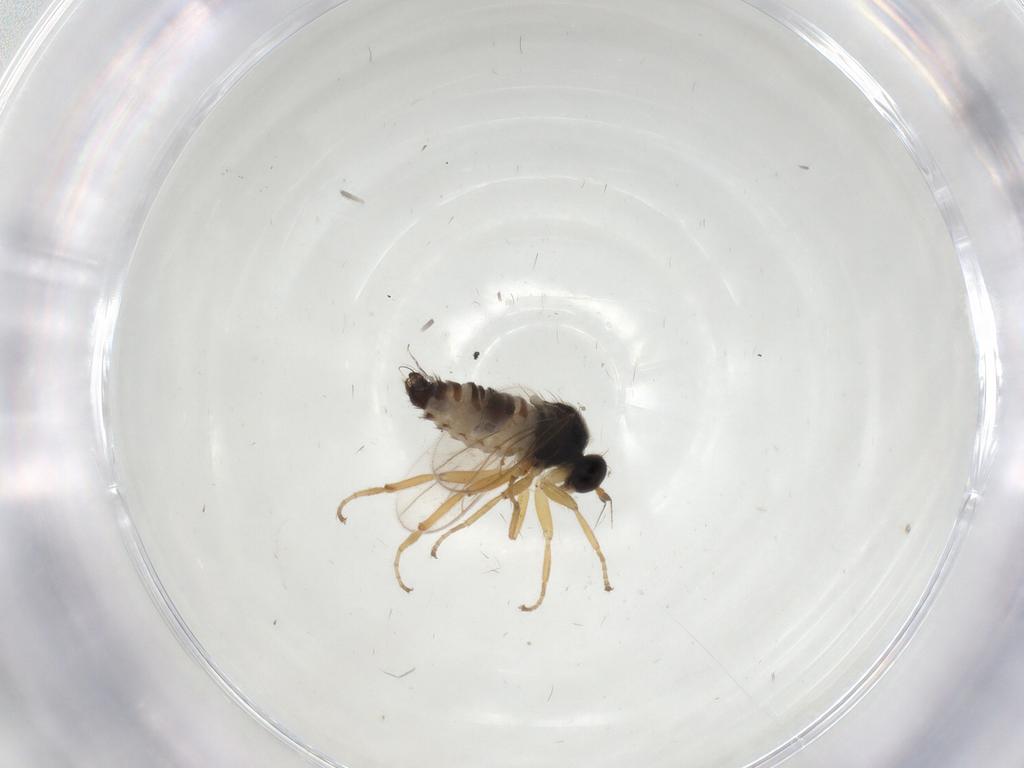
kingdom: Animalia
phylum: Arthropoda
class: Insecta
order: Diptera
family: Hybotidae
